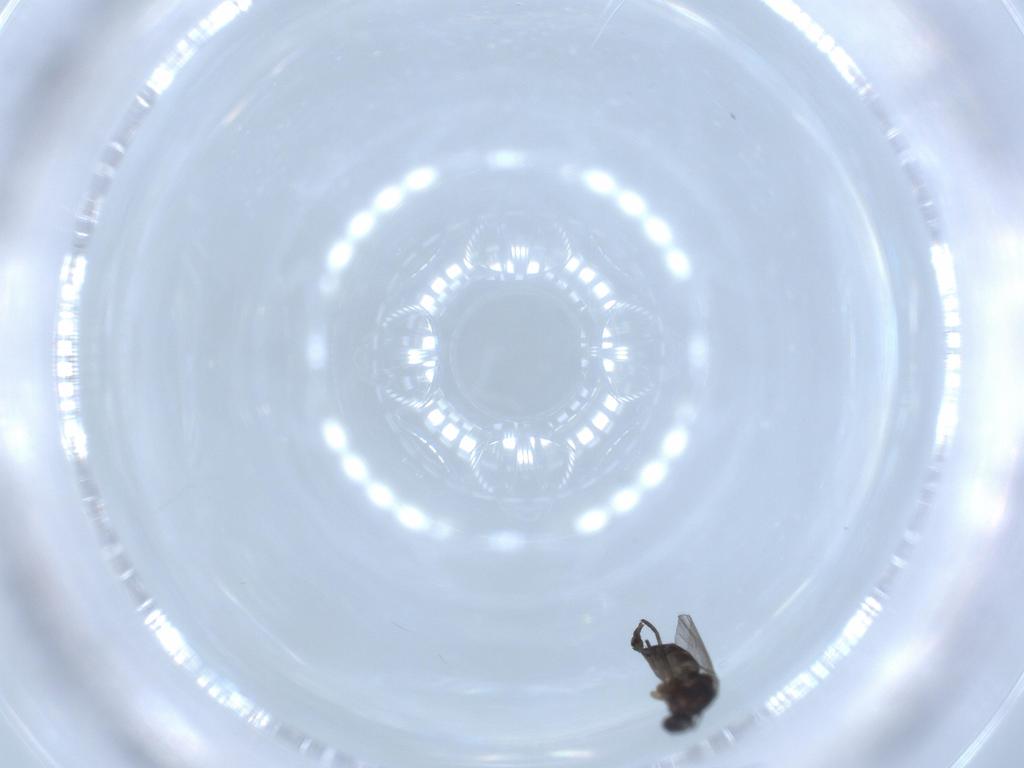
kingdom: Animalia
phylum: Arthropoda
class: Insecta
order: Diptera
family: Sciaridae
